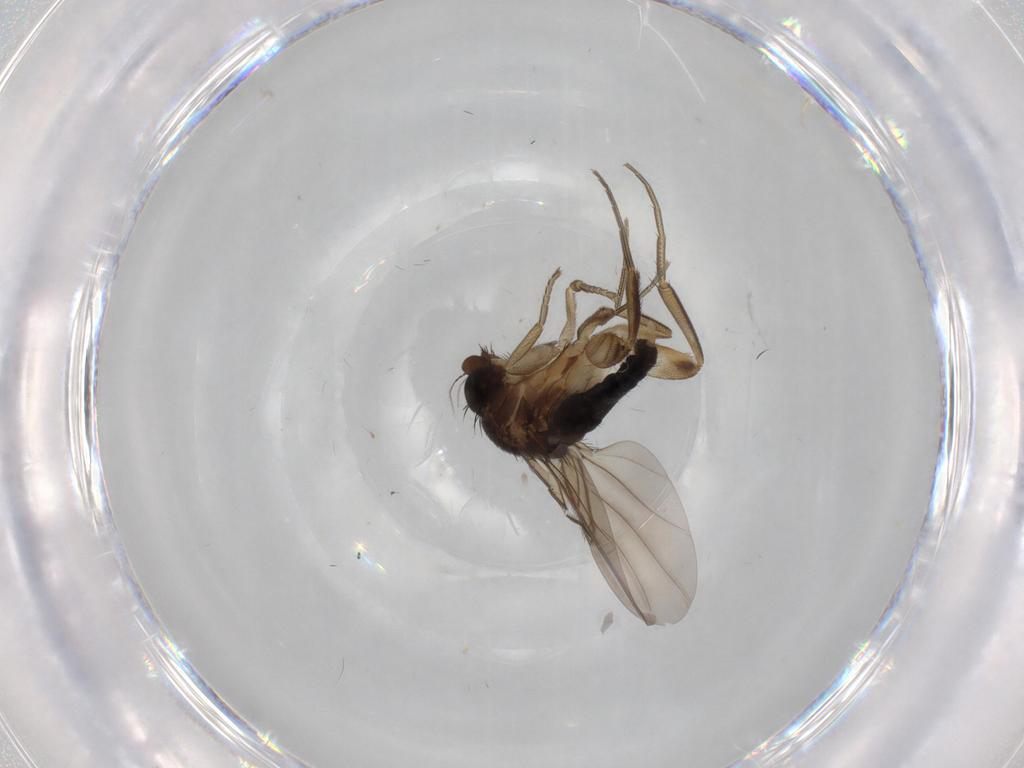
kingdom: Animalia
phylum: Arthropoda
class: Insecta
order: Diptera
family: Phoridae
